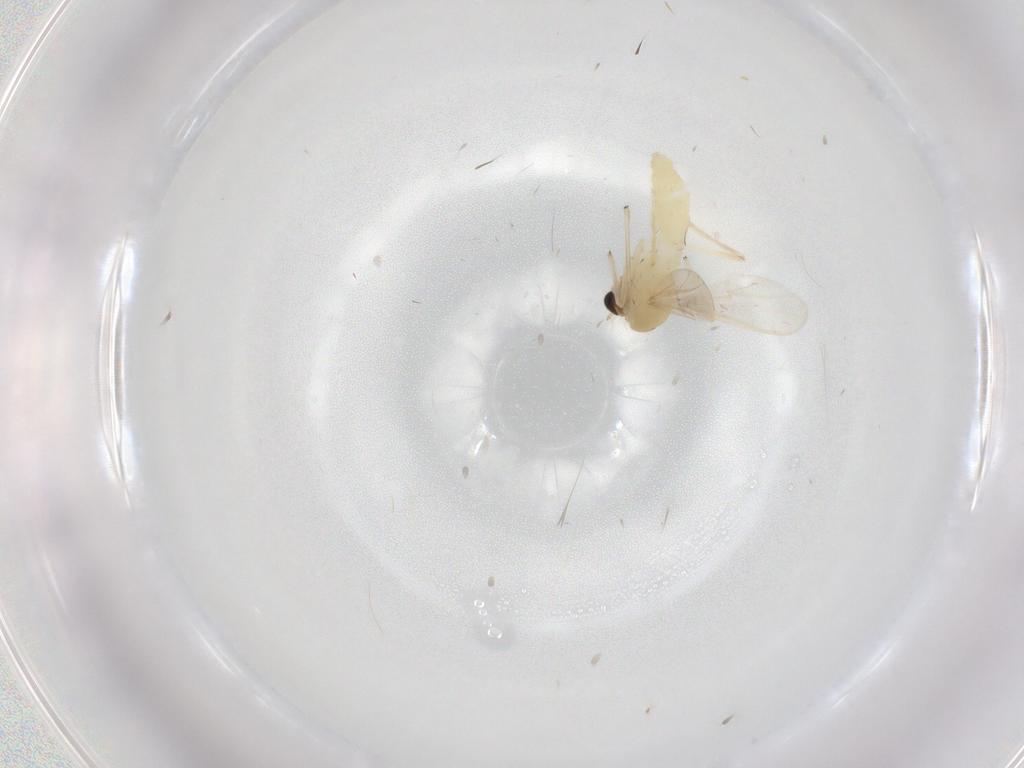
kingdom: Animalia
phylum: Arthropoda
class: Insecta
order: Diptera
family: Chironomidae
